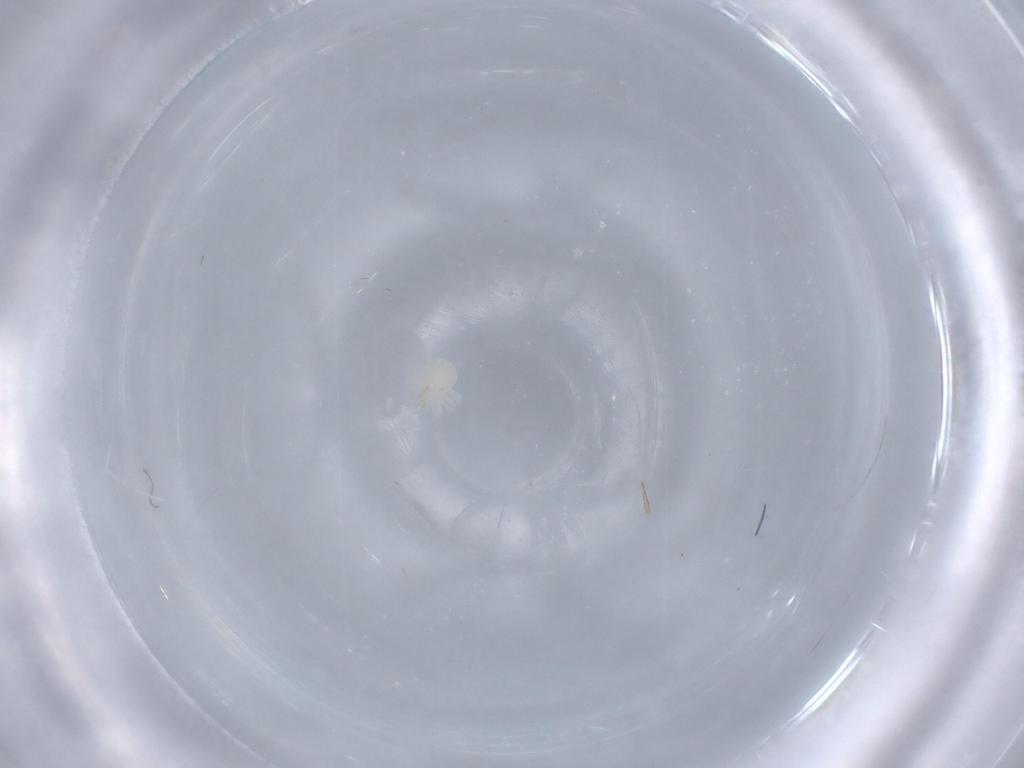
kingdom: Animalia
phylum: Arthropoda
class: Arachnida
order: Trombidiformes
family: Anystidae
